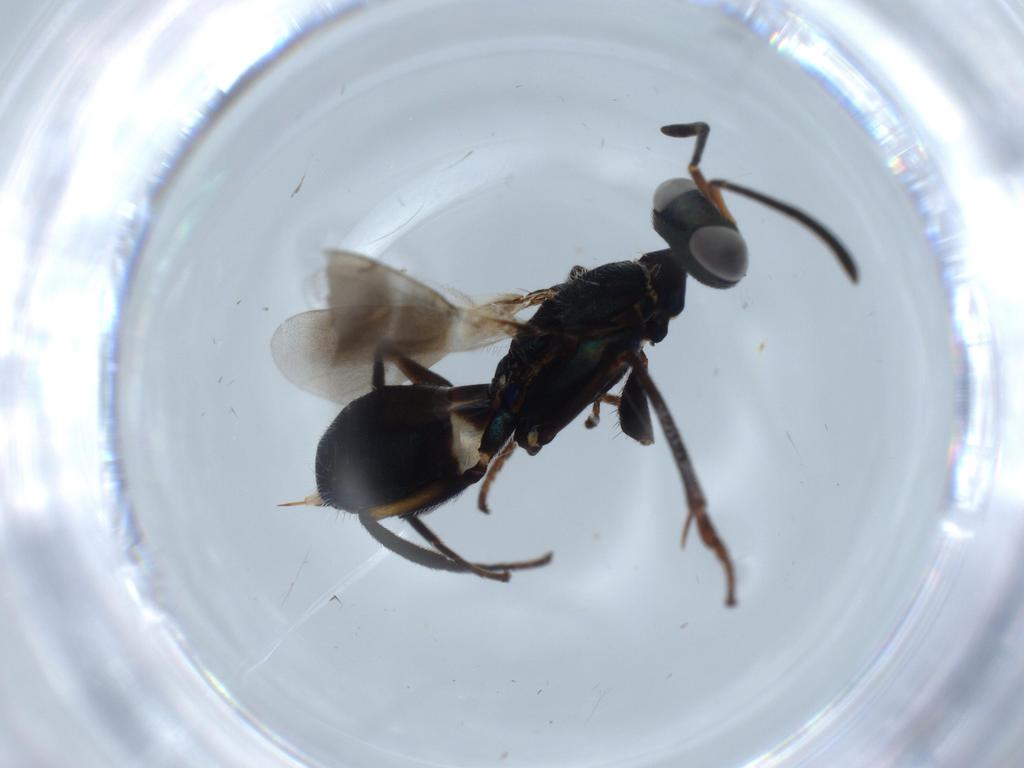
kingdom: Animalia
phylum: Arthropoda
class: Insecta
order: Hymenoptera
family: Eupelmidae
